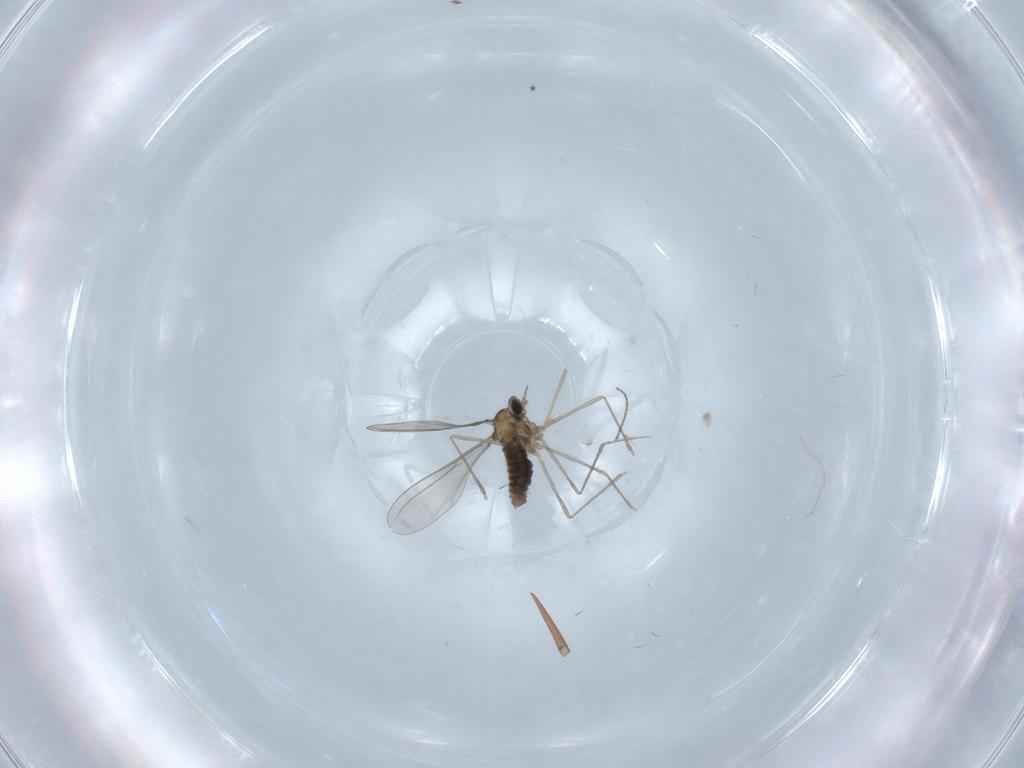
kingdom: Animalia
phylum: Arthropoda
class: Insecta
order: Diptera
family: Cecidomyiidae
